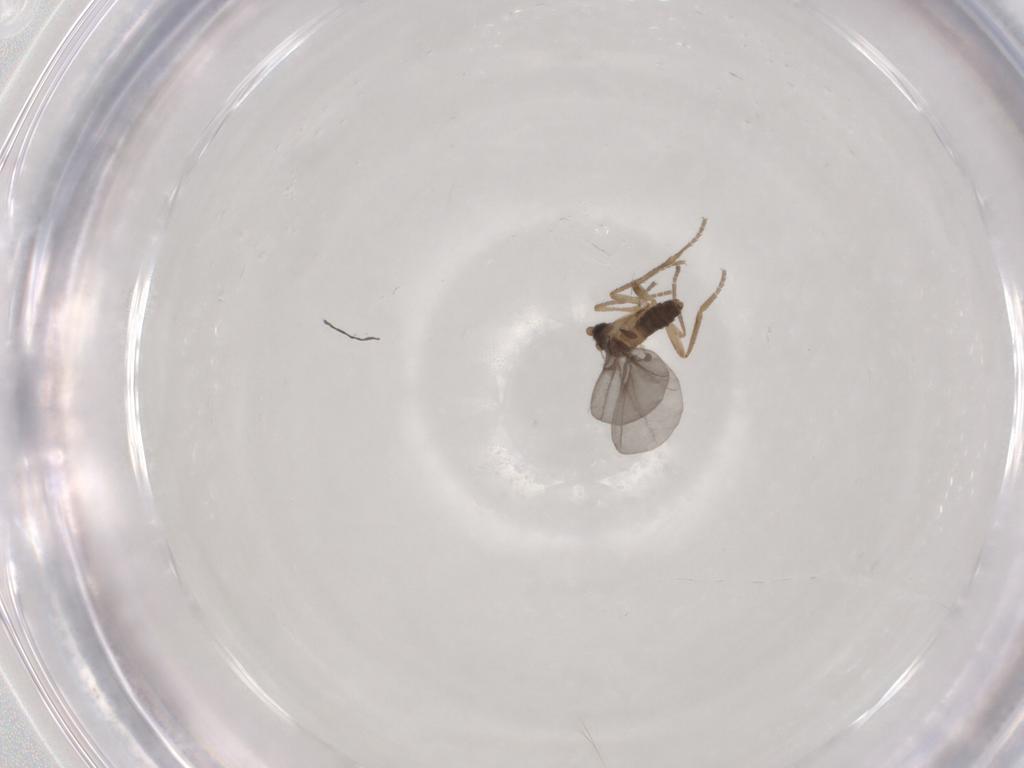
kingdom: Animalia
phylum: Arthropoda
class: Insecta
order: Diptera
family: Phoridae
